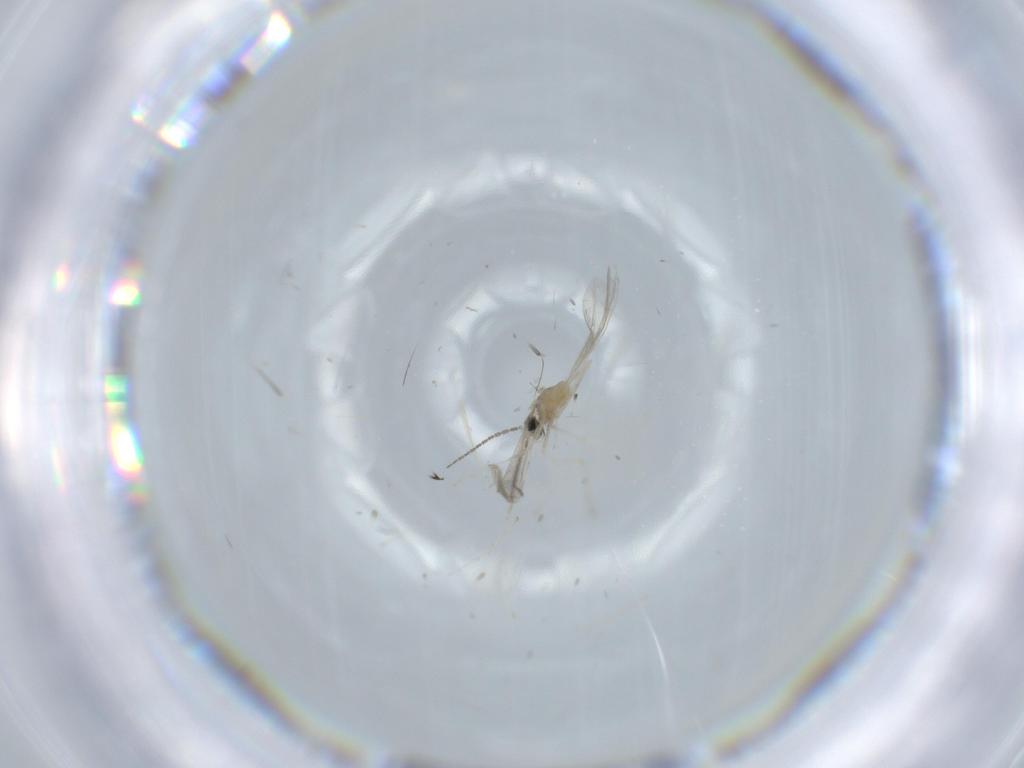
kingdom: Animalia
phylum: Arthropoda
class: Insecta
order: Diptera
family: Cecidomyiidae
